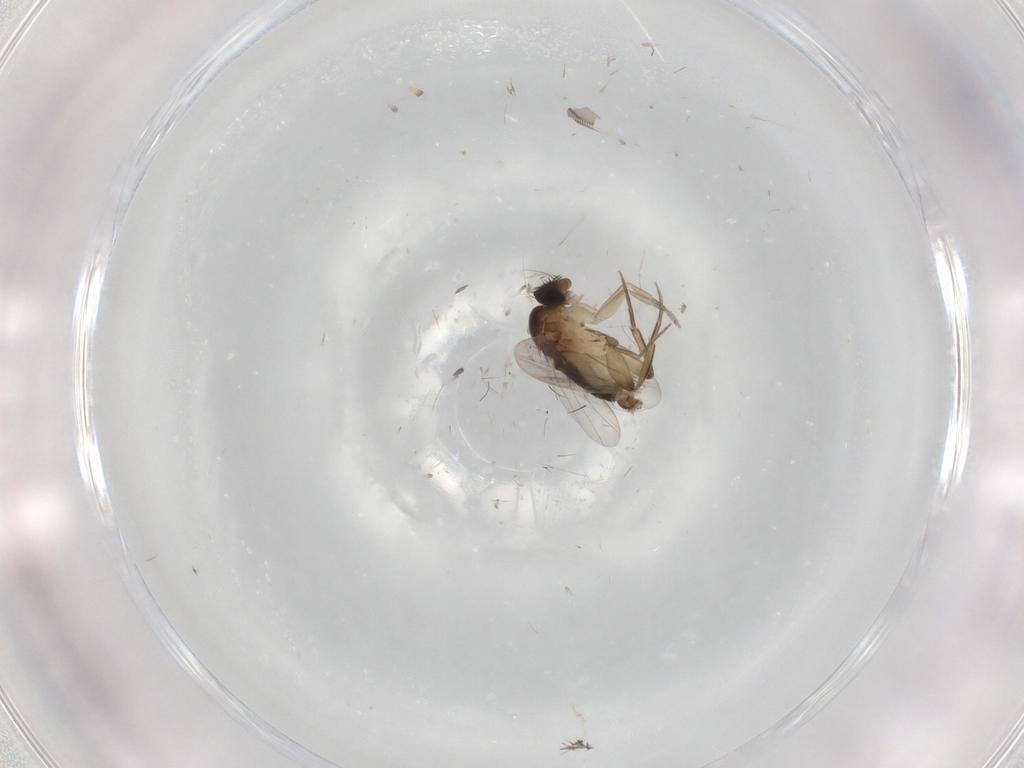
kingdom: Animalia
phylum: Arthropoda
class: Insecta
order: Diptera
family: Phoridae
